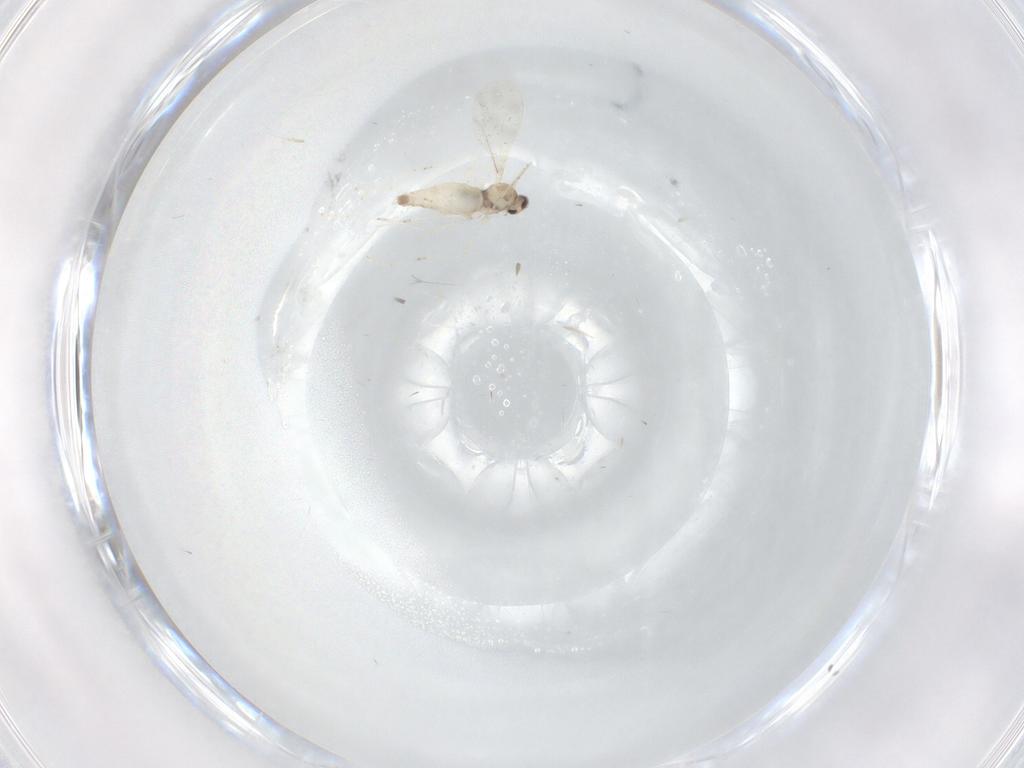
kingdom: Animalia
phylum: Arthropoda
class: Insecta
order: Diptera
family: Cecidomyiidae
